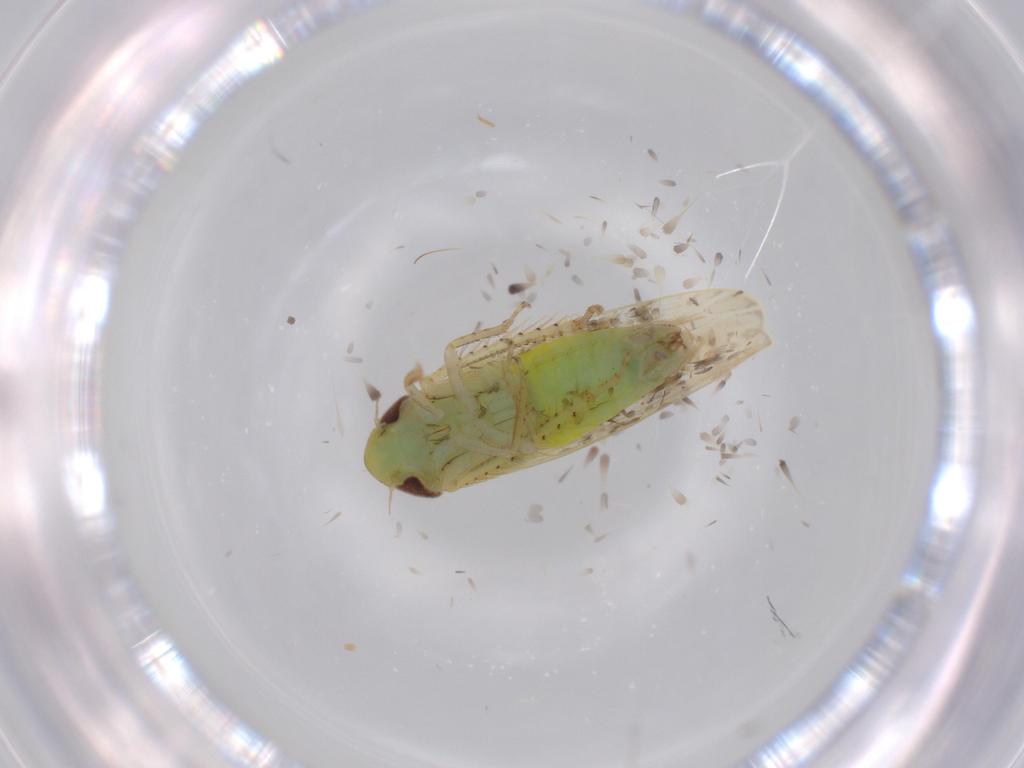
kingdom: Animalia
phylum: Arthropoda
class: Insecta
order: Hemiptera
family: Cicadellidae
